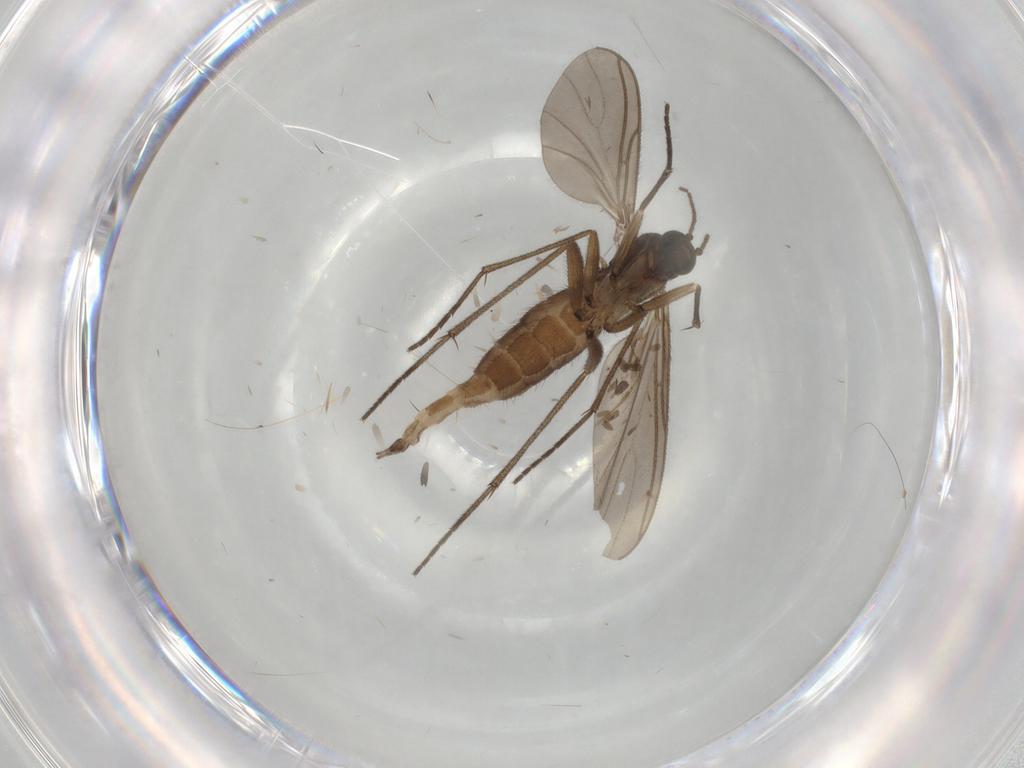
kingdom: Animalia
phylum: Arthropoda
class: Insecta
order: Diptera
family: Sciaridae
